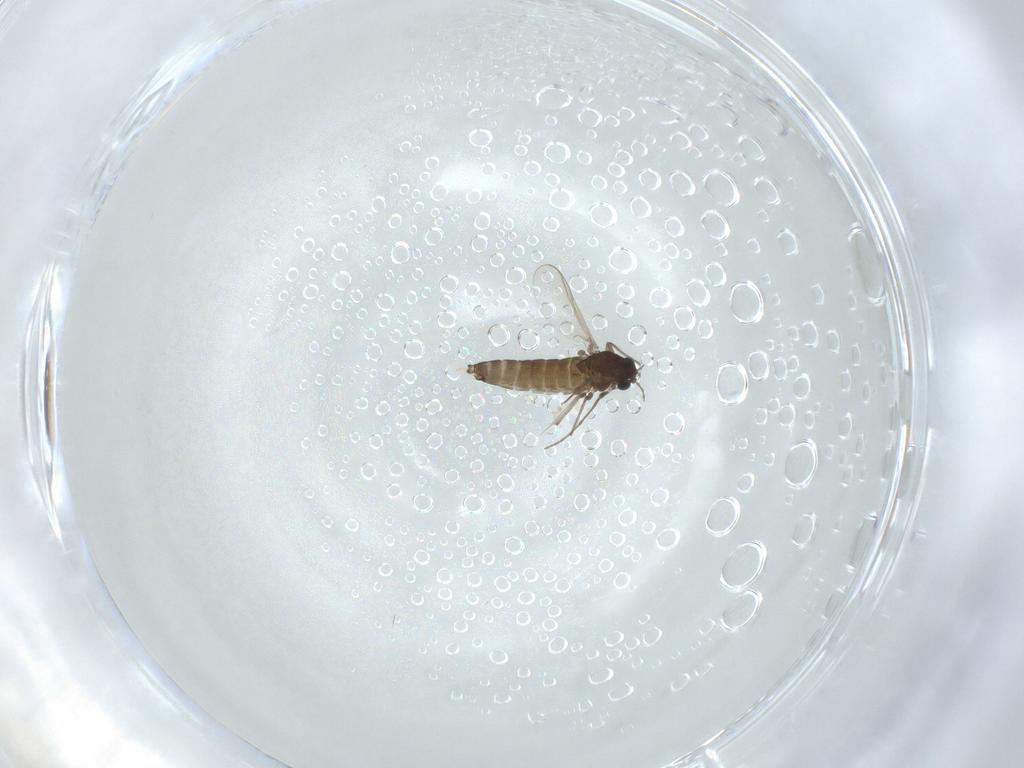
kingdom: Animalia
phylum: Arthropoda
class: Insecta
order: Diptera
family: Chironomidae
